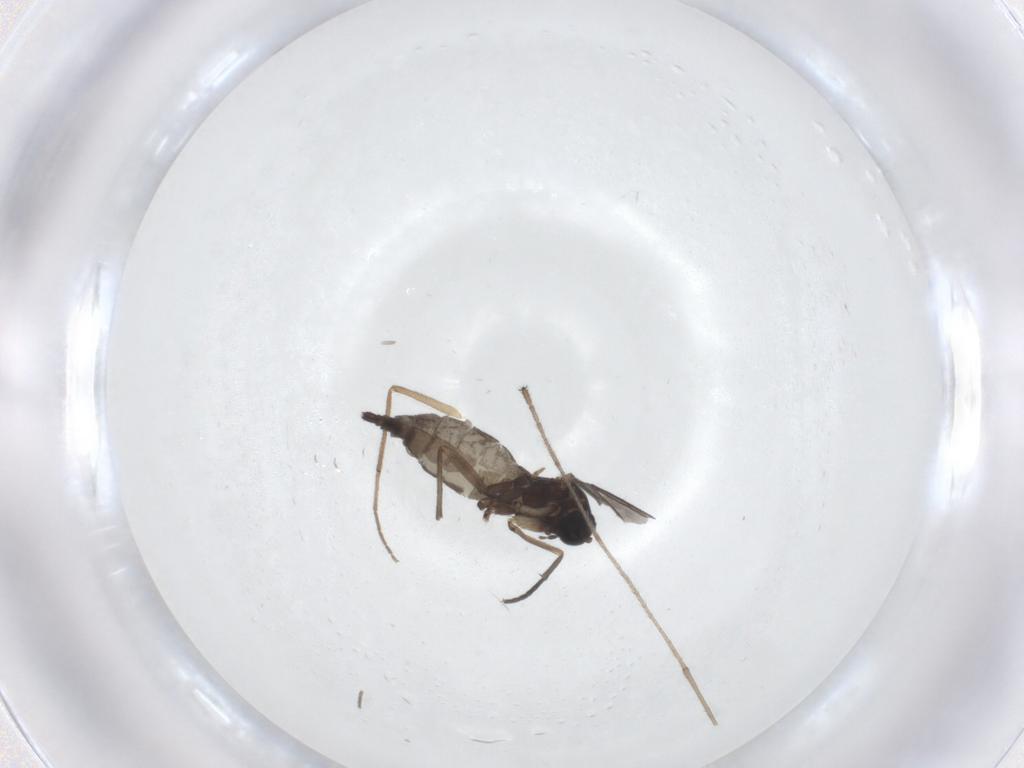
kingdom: Animalia
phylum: Arthropoda
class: Insecta
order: Diptera
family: Sciaridae
